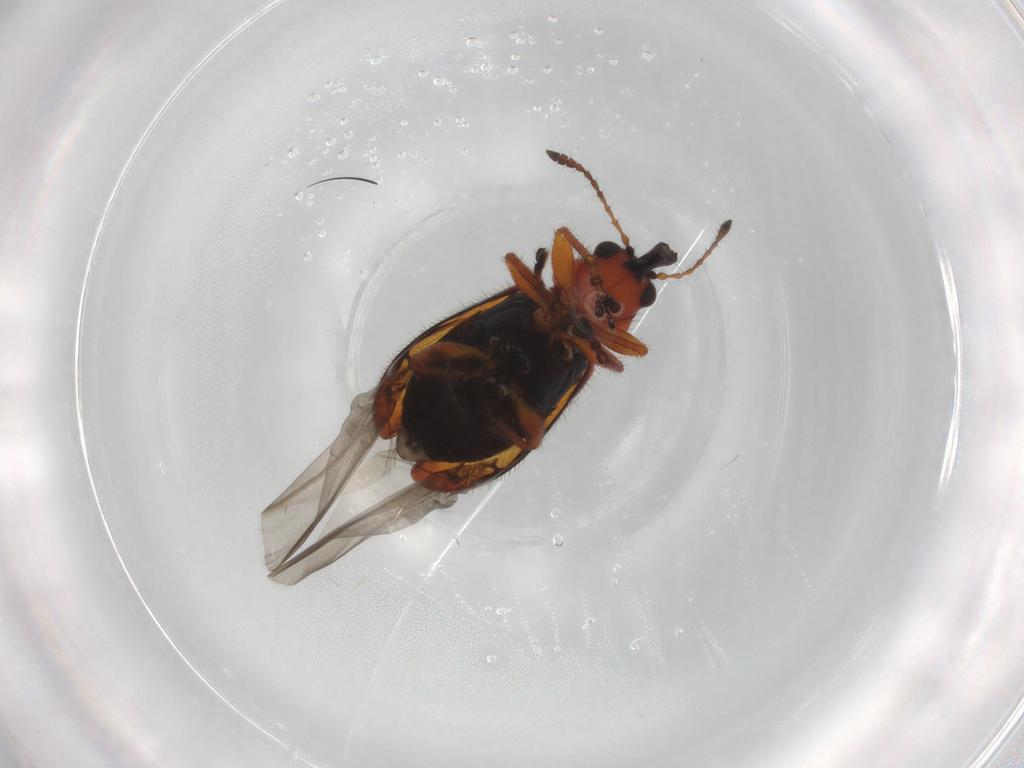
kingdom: Animalia
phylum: Arthropoda
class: Insecta
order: Coleoptera
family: Attelabidae
